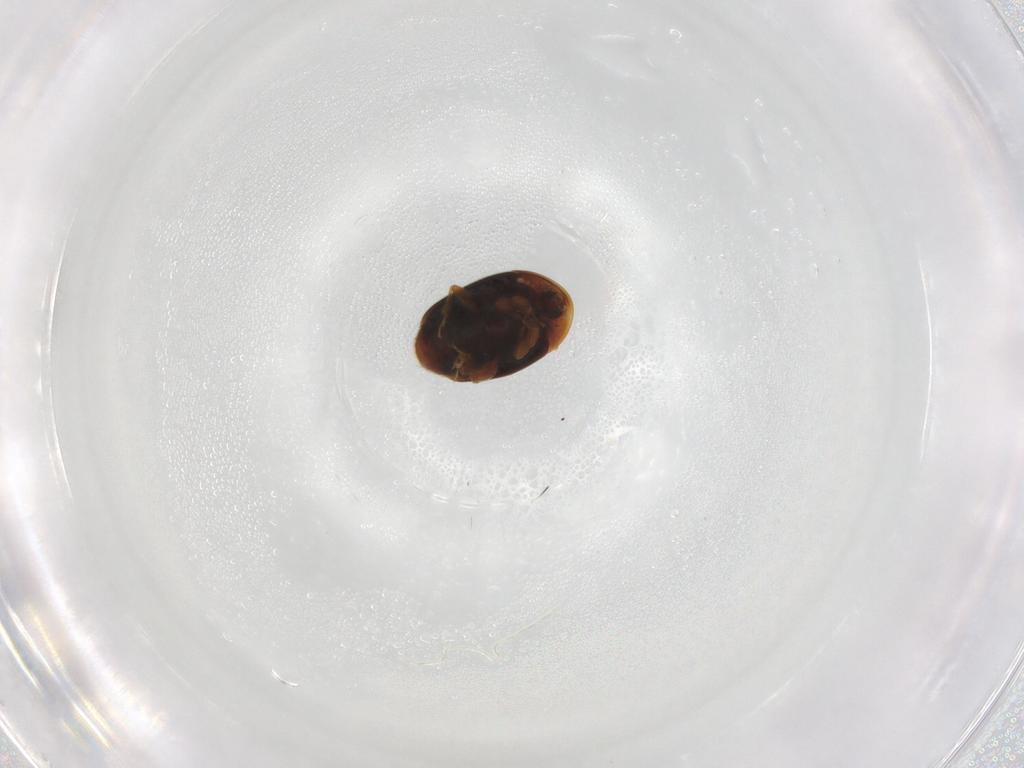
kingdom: Animalia
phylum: Arthropoda
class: Insecta
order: Coleoptera
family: Corylophidae
